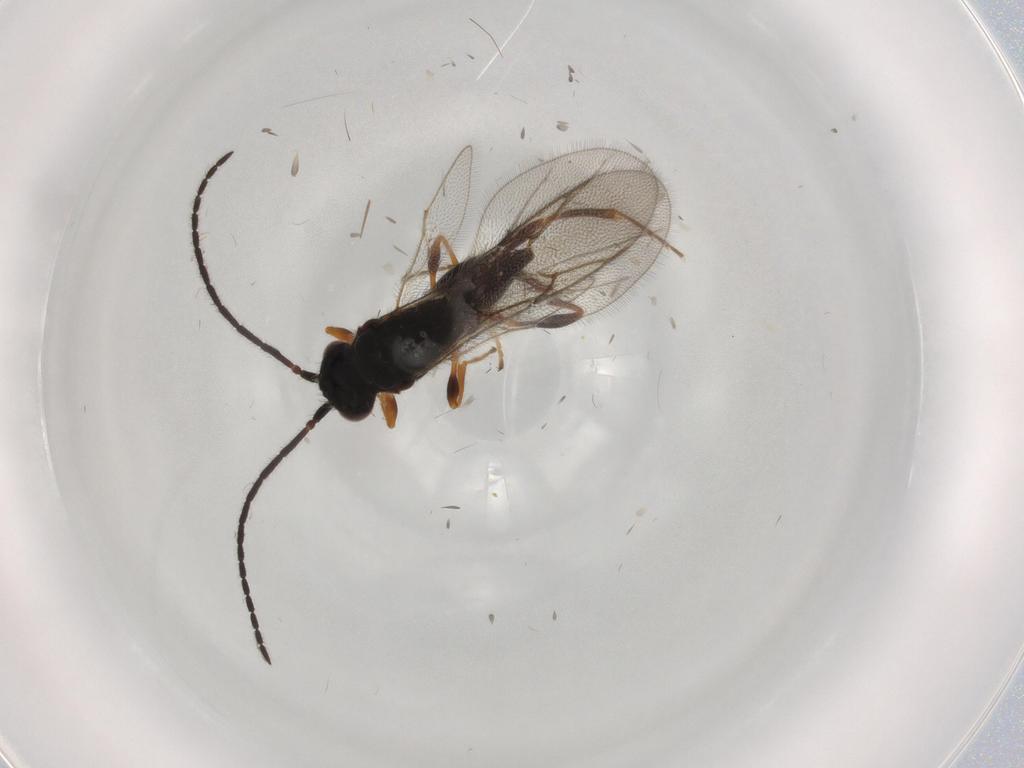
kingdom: Animalia
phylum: Arthropoda
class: Insecta
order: Hymenoptera
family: Diapriidae
